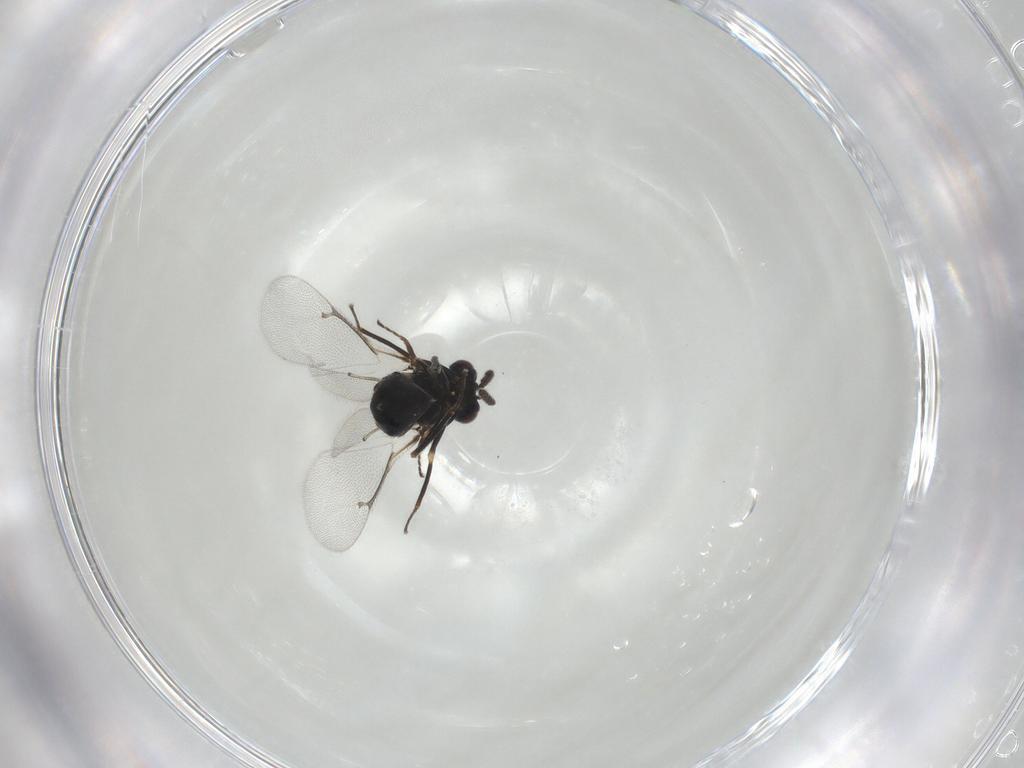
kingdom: Animalia
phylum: Arthropoda
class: Insecta
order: Hymenoptera
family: Eulophidae
